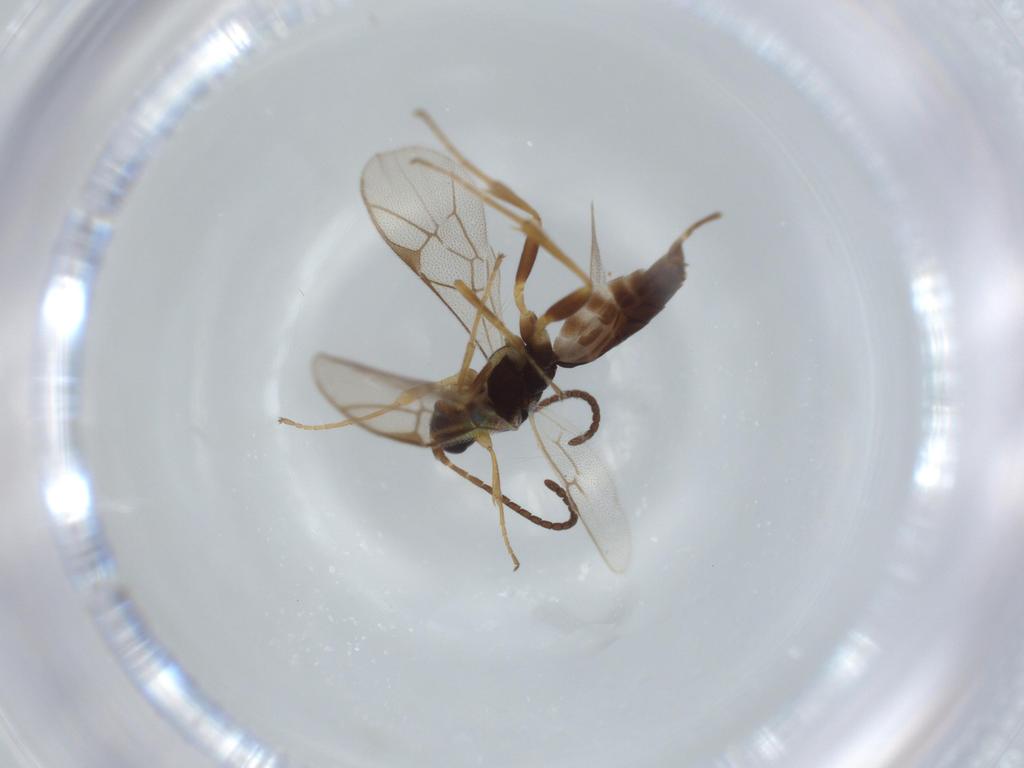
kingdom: Animalia
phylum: Arthropoda
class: Insecta
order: Hymenoptera
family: Ichneumonidae
